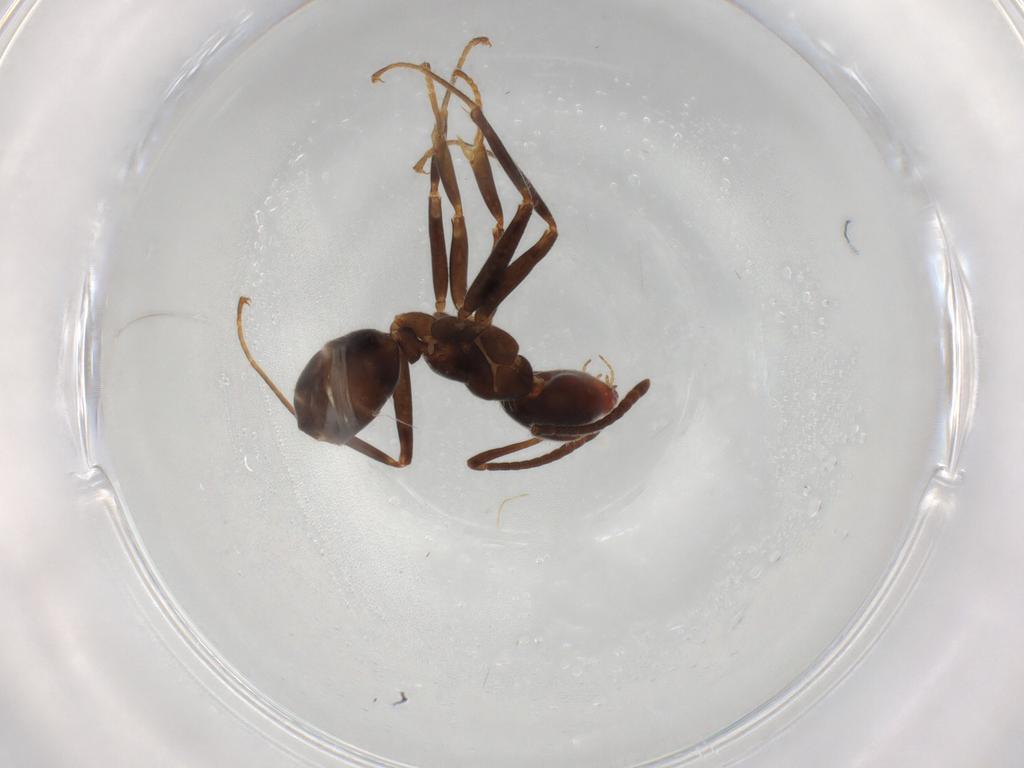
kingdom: Animalia
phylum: Arthropoda
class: Insecta
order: Hymenoptera
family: Formicidae
